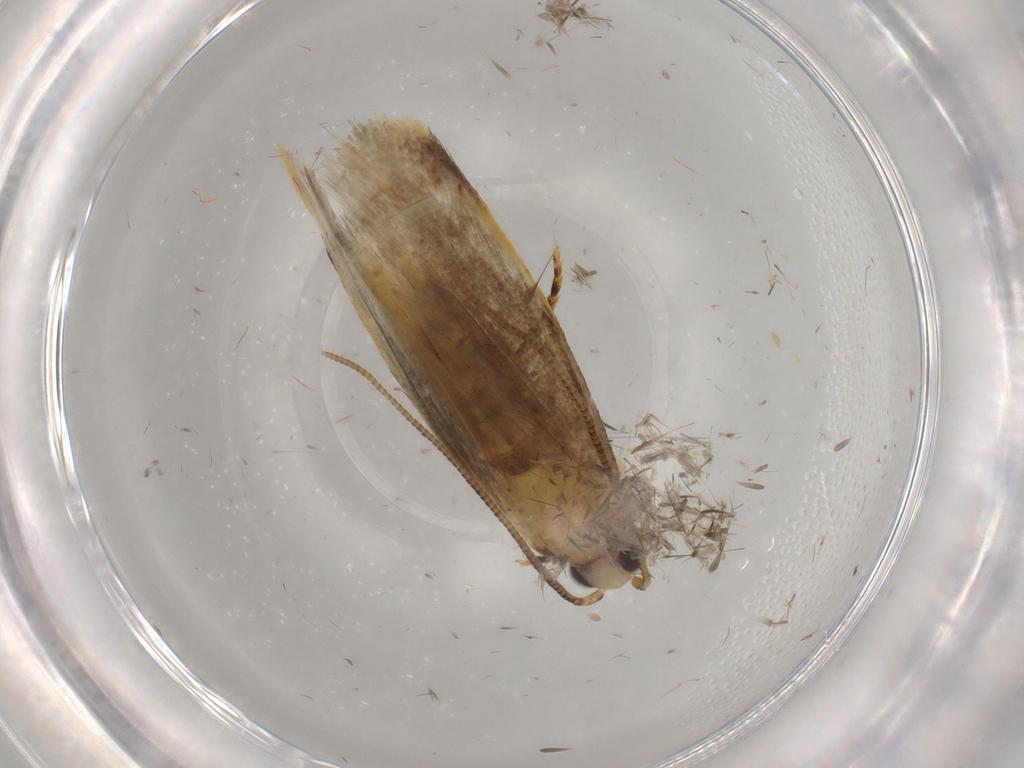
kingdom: Animalia
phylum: Arthropoda
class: Insecta
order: Lepidoptera
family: Tineidae
